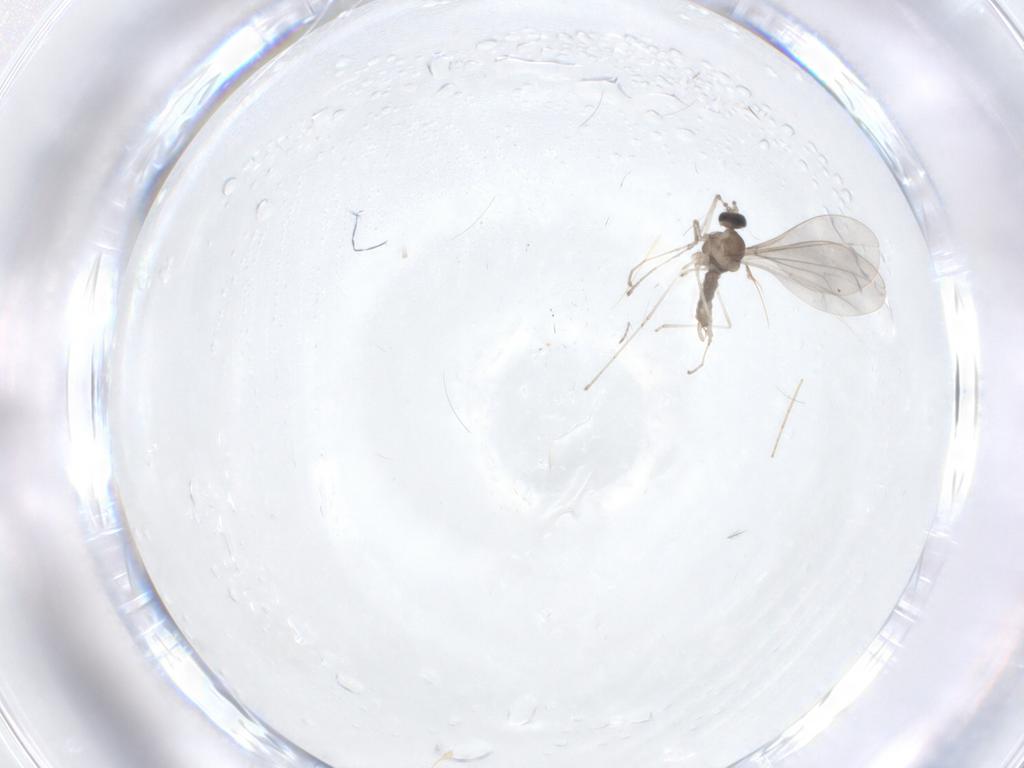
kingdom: Animalia
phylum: Arthropoda
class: Insecta
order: Diptera
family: Cecidomyiidae
